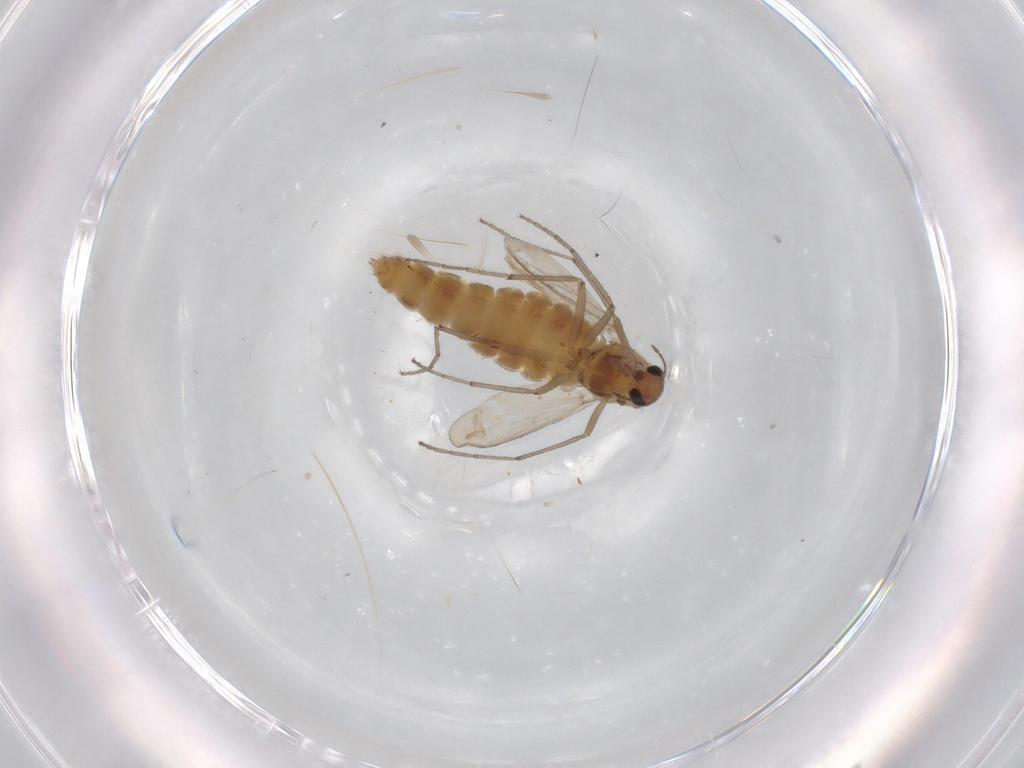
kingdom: Animalia
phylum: Arthropoda
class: Insecta
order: Diptera
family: Chironomidae
